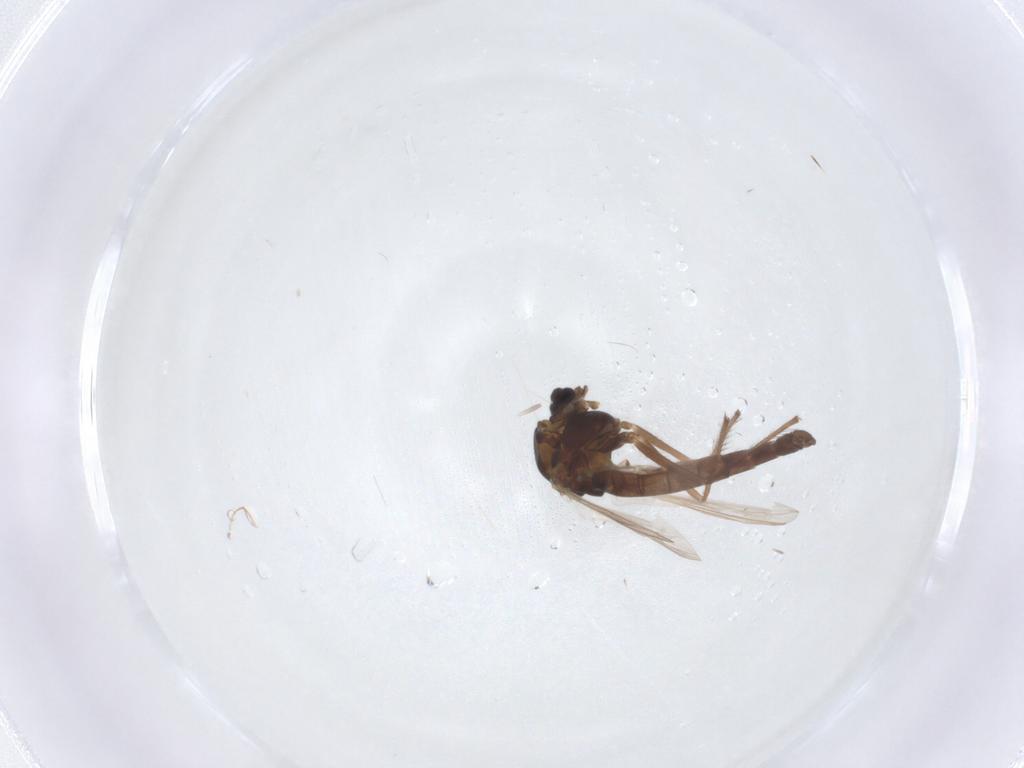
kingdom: Animalia
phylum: Arthropoda
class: Insecta
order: Diptera
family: Chironomidae
